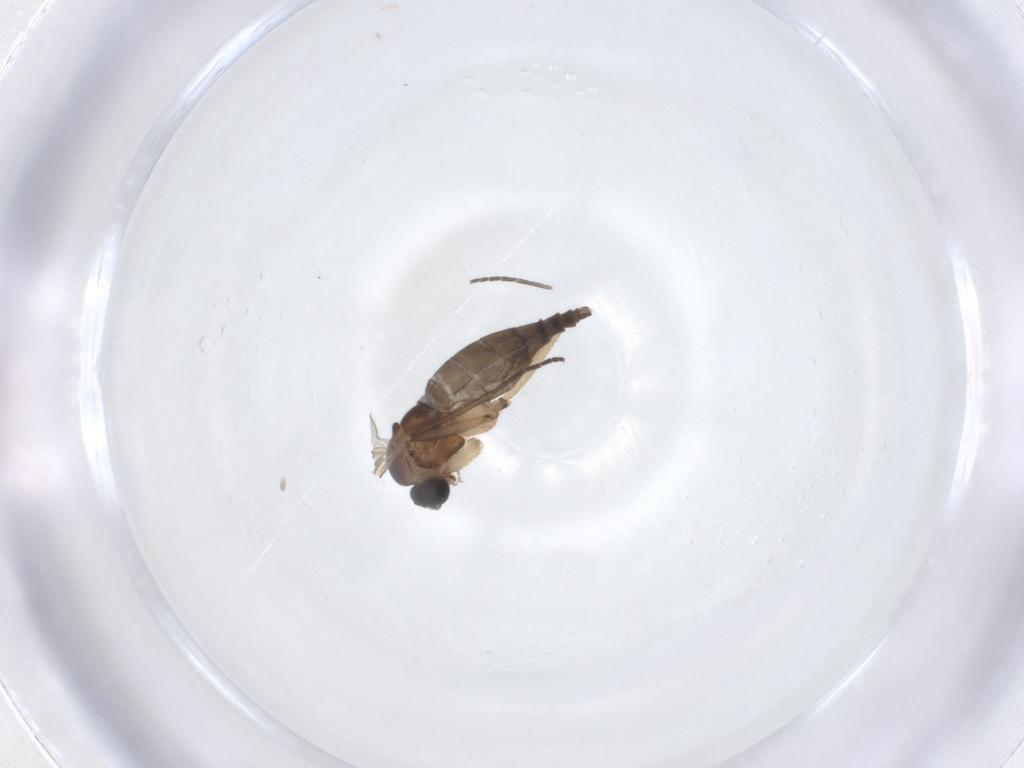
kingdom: Animalia
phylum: Arthropoda
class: Insecta
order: Diptera
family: Sciaridae
